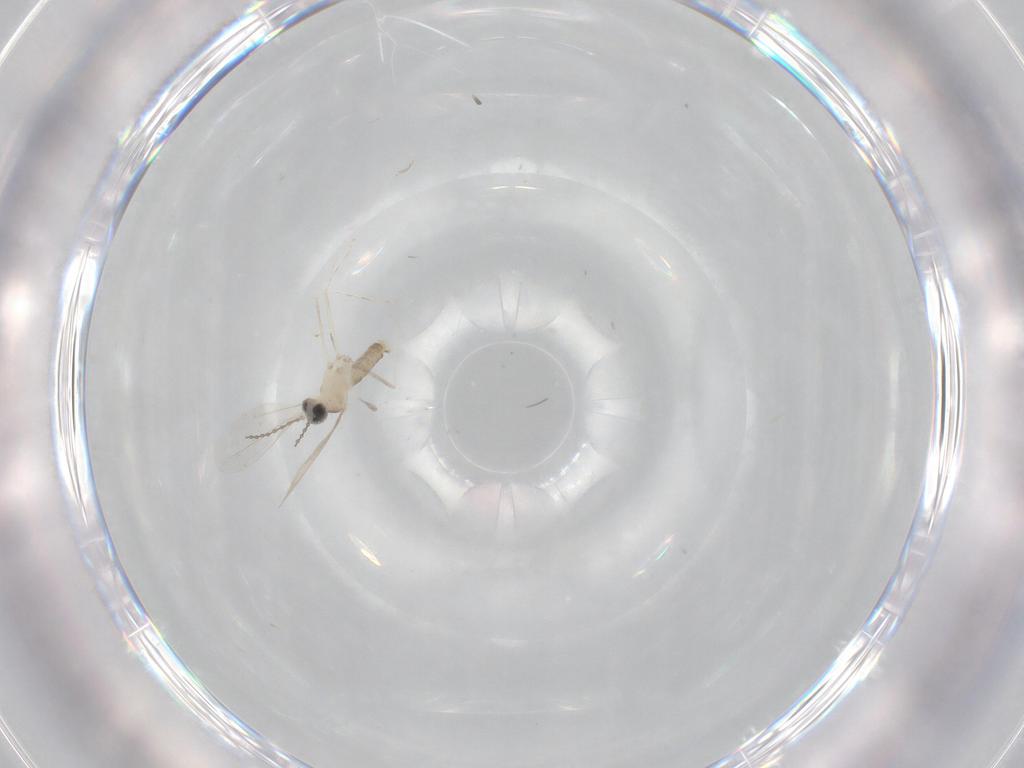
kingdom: Animalia
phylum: Arthropoda
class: Insecta
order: Diptera
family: Cecidomyiidae
